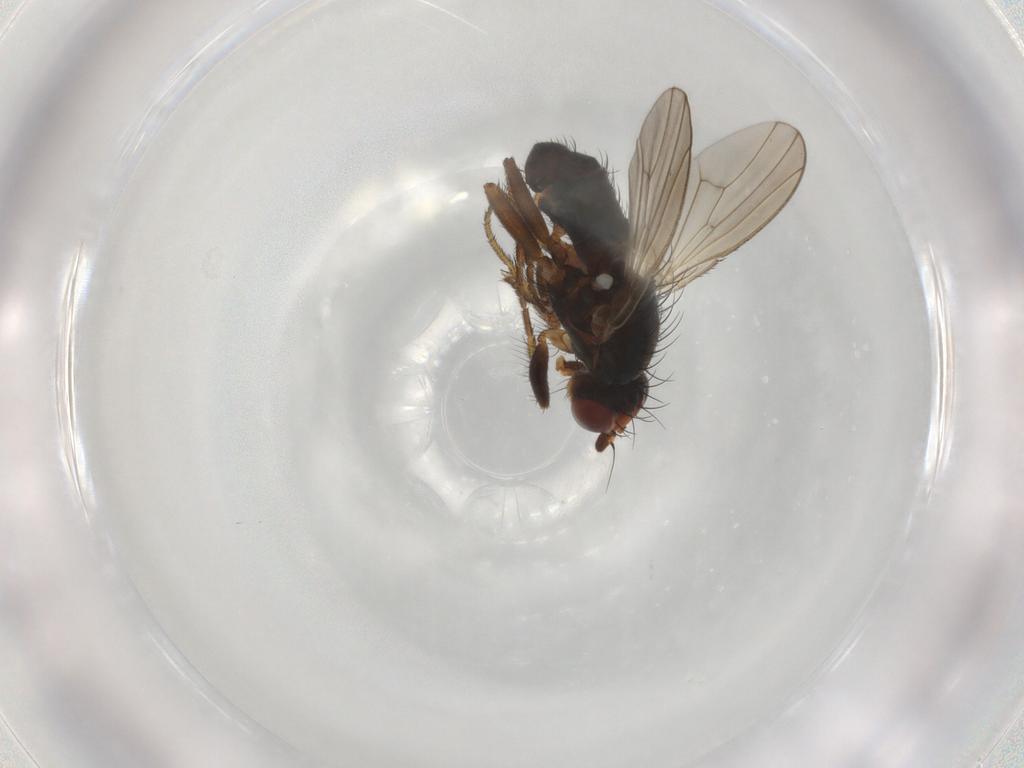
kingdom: Animalia
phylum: Arthropoda
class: Insecta
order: Diptera
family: Heleomyzidae
